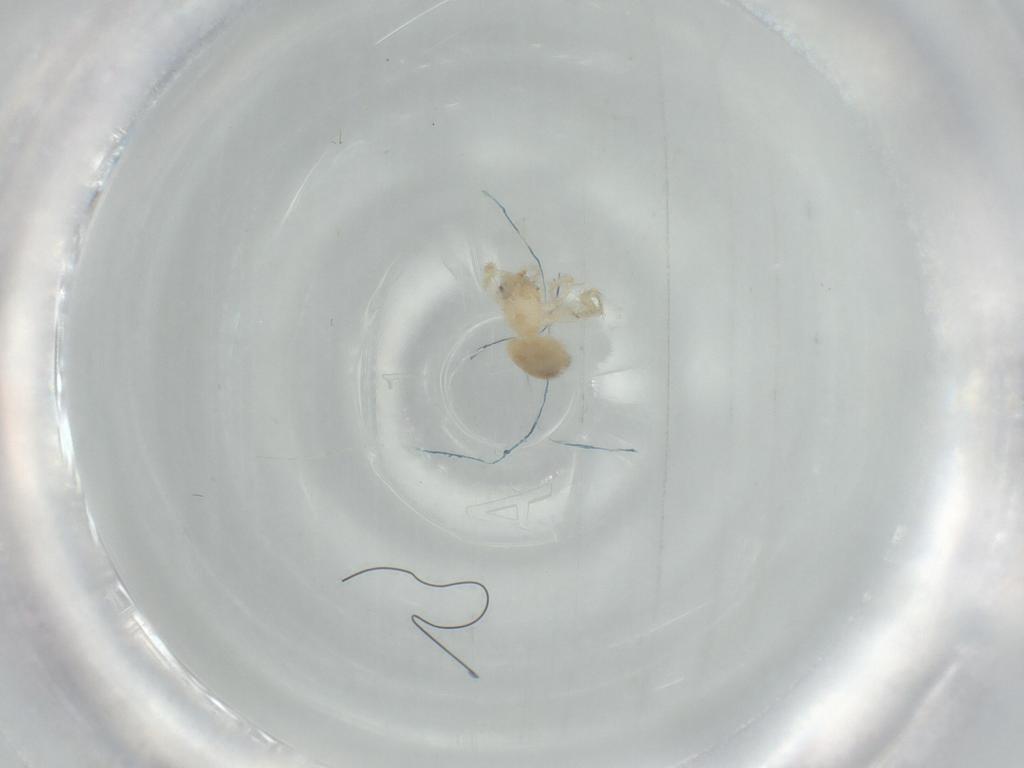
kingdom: Animalia
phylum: Arthropoda
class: Arachnida
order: Araneae
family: Oonopidae
